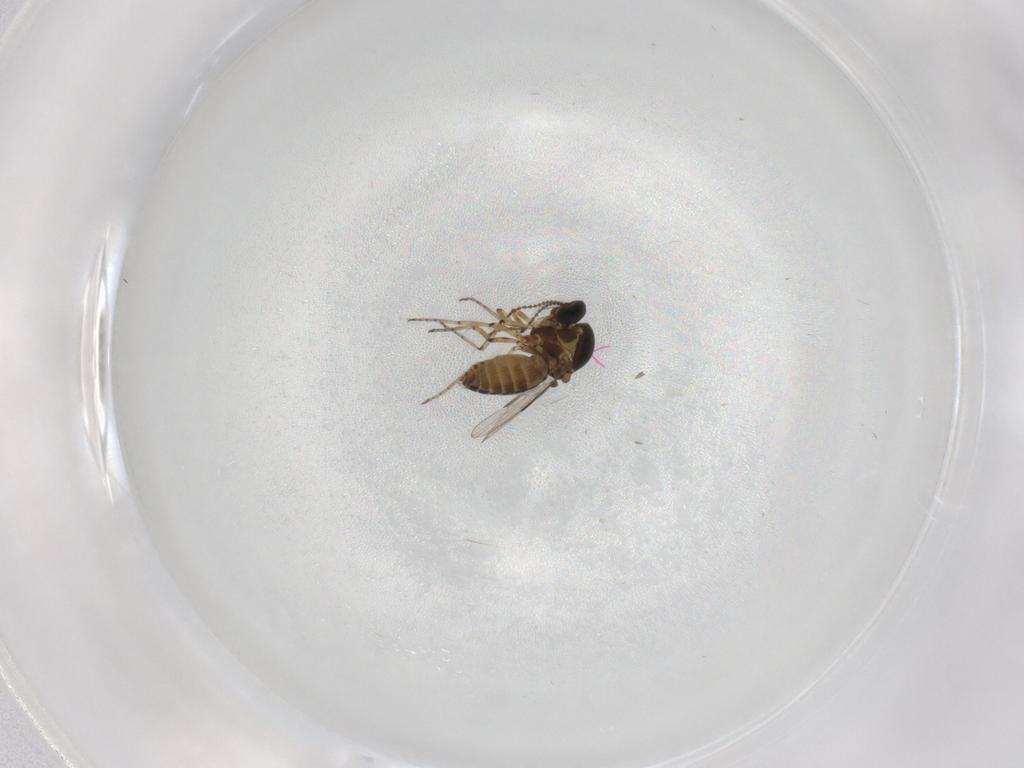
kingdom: Animalia
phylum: Arthropoda
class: Insecta
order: Diptera
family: Ceratopogonidae
